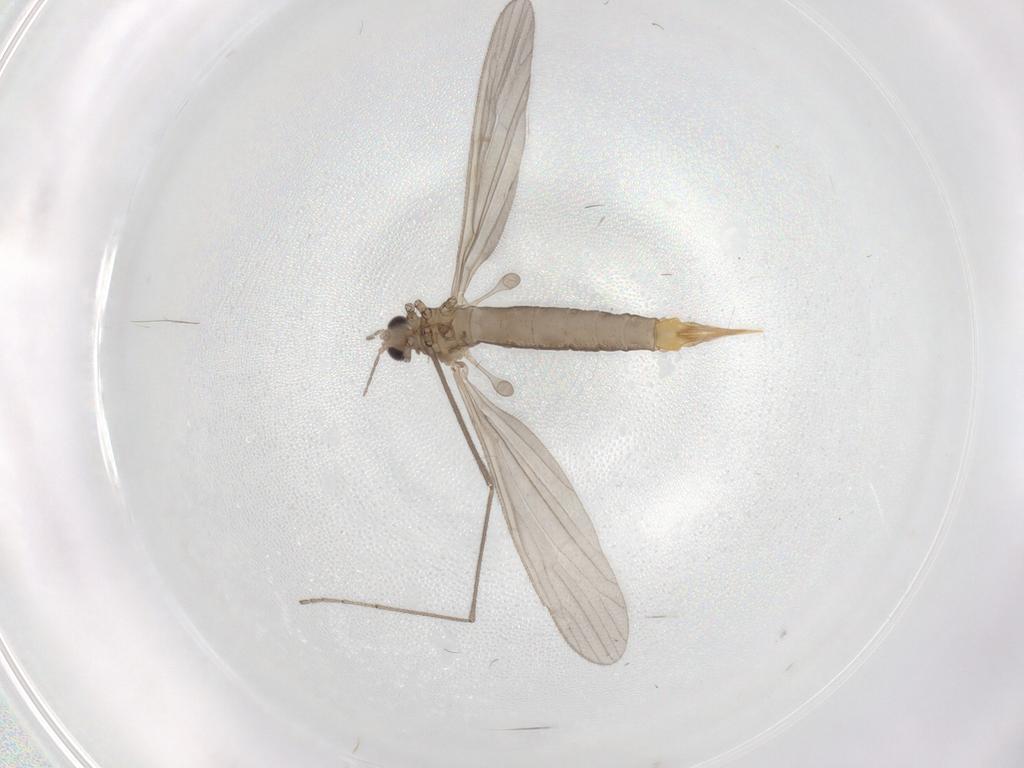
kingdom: Animalia
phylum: Arthropoda
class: Insecta
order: Diptera
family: Limoniidae
